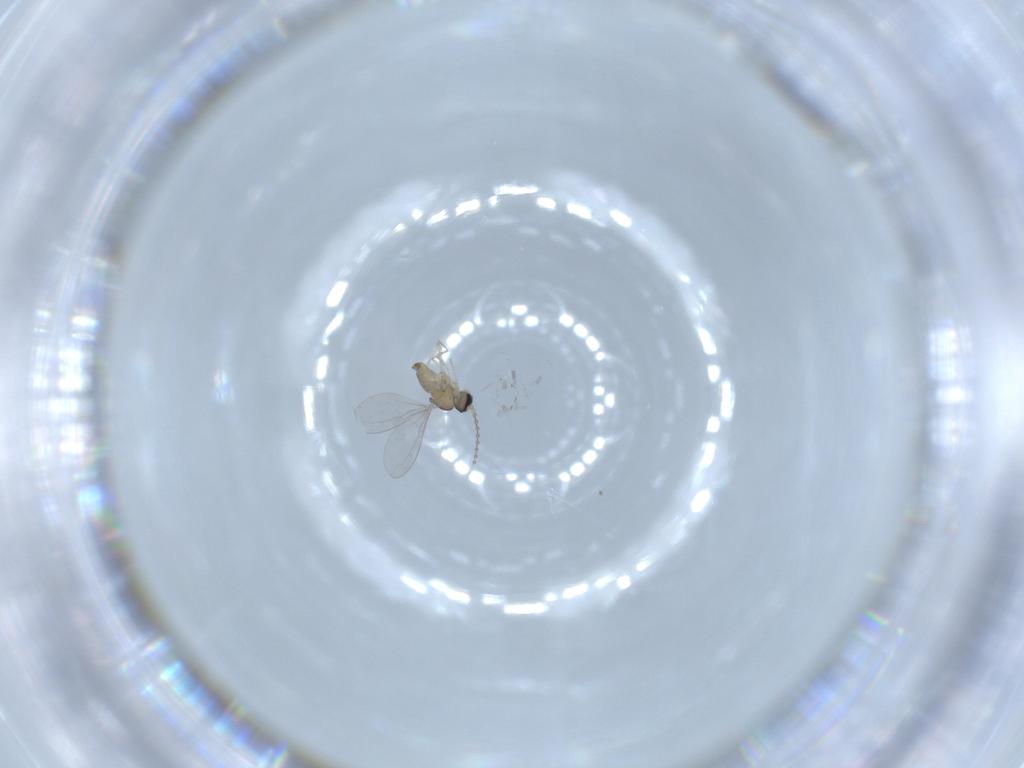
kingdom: Animalia
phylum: Arthropoda
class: Insecta
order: Diptera
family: Cecidomyiidae
